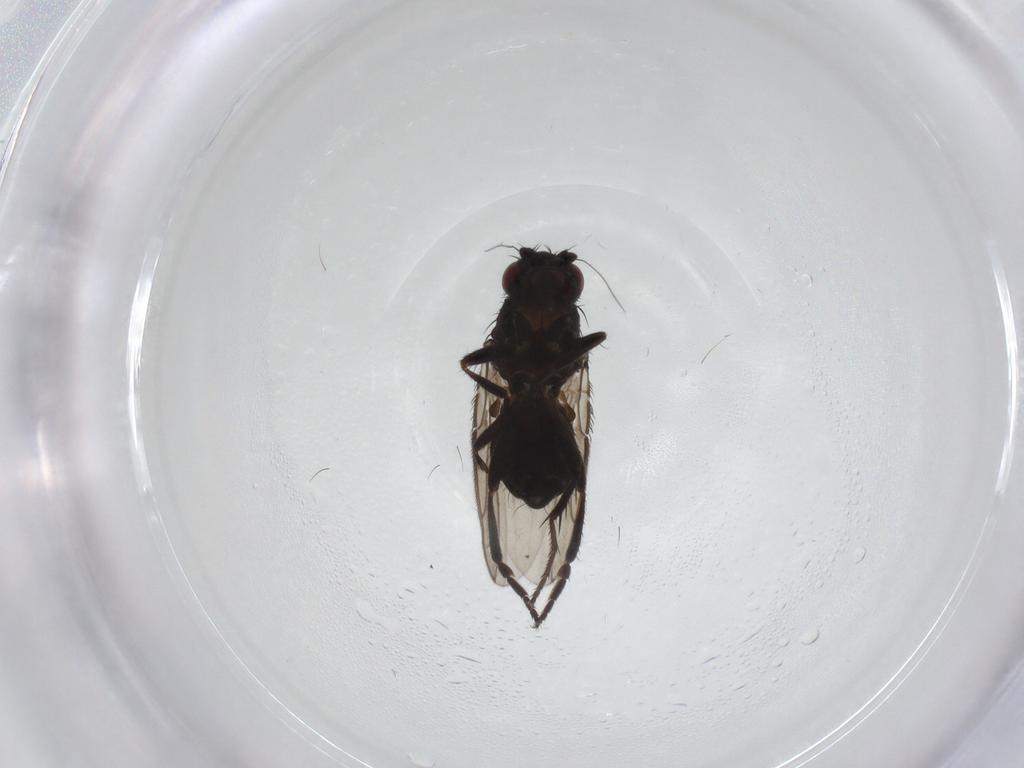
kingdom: Animalia
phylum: Arthropoda
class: Insecta
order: Diptera
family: Sphaeroceridae
